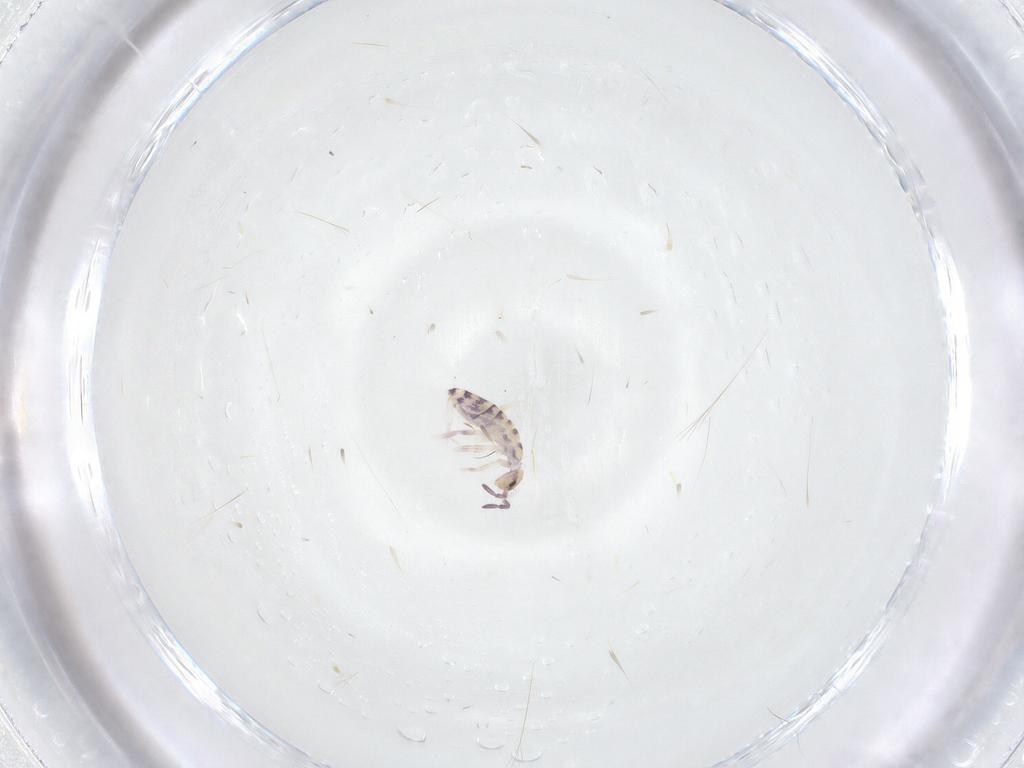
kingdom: Animalia
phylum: Arthropoda
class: Collembola
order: Entomobryomorpha
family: Entomobryidae
